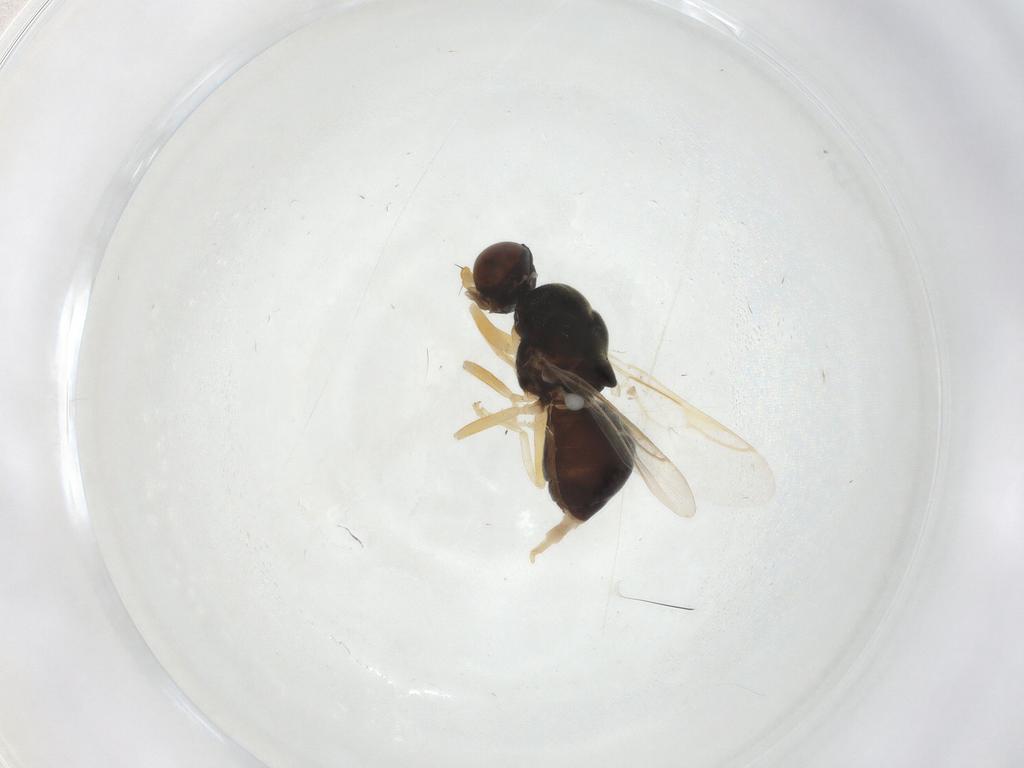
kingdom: Animalia
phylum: Arthropoda
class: Insecta
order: Diptera
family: Stratiomyidae
